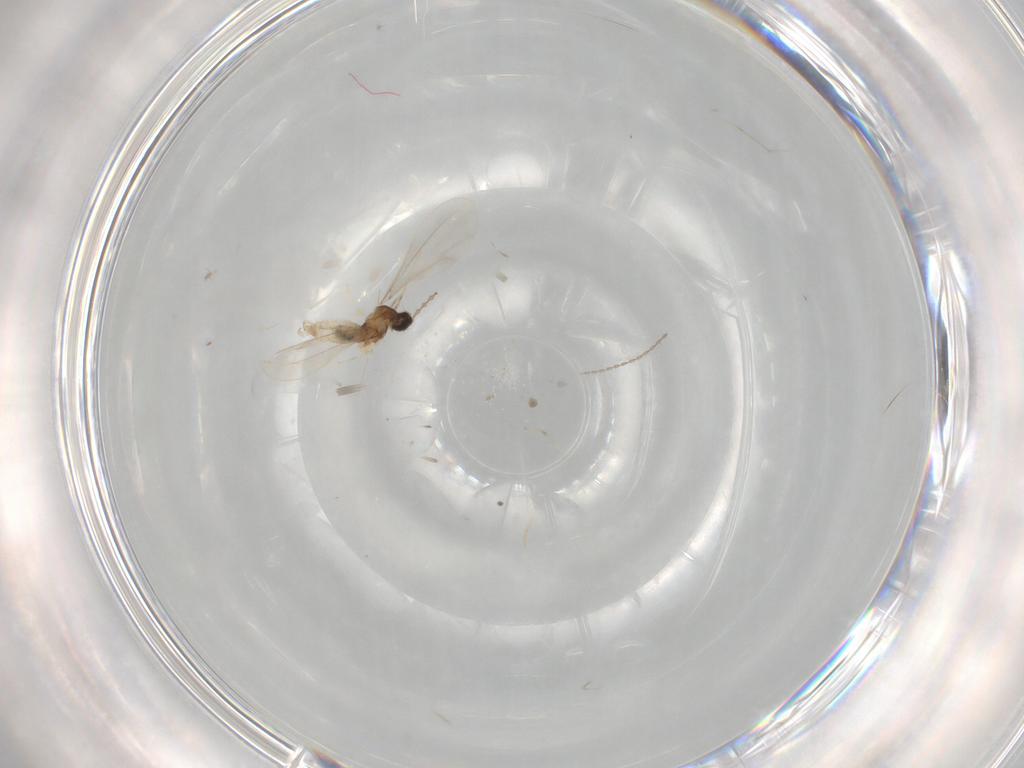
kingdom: Animalia
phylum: Arthropoda
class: Insecta
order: Diptera
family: Cecidomyiidae
